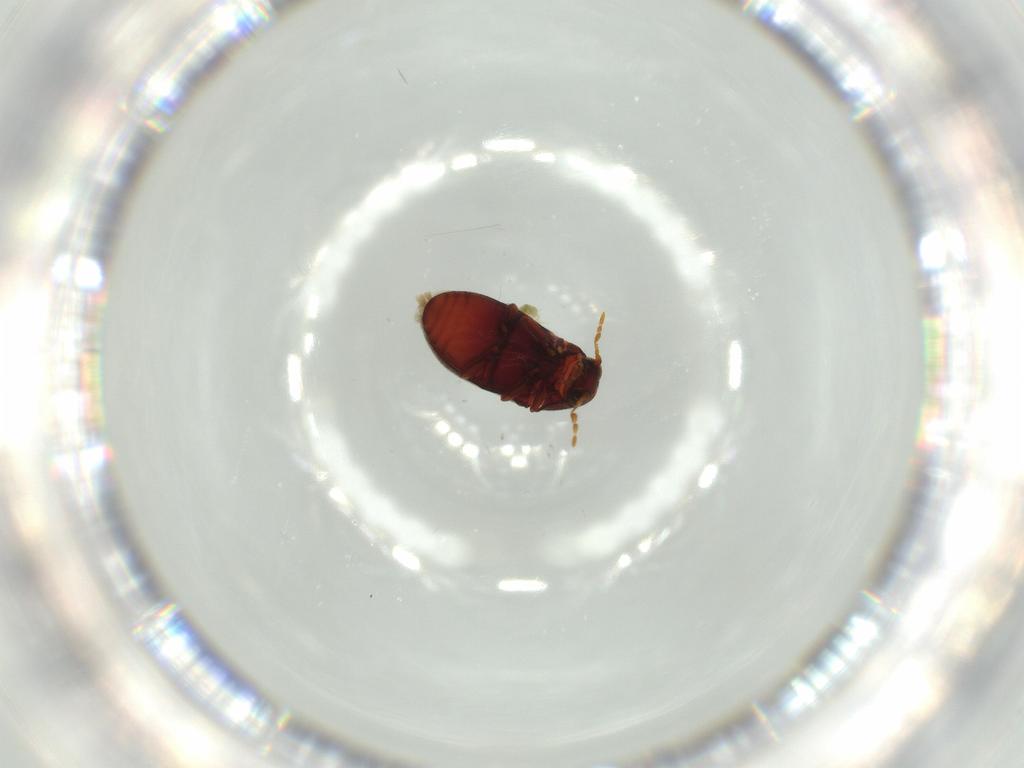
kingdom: Animalia
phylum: Arthropoda
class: Insecta
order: Coleoptera
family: Ptinidae
